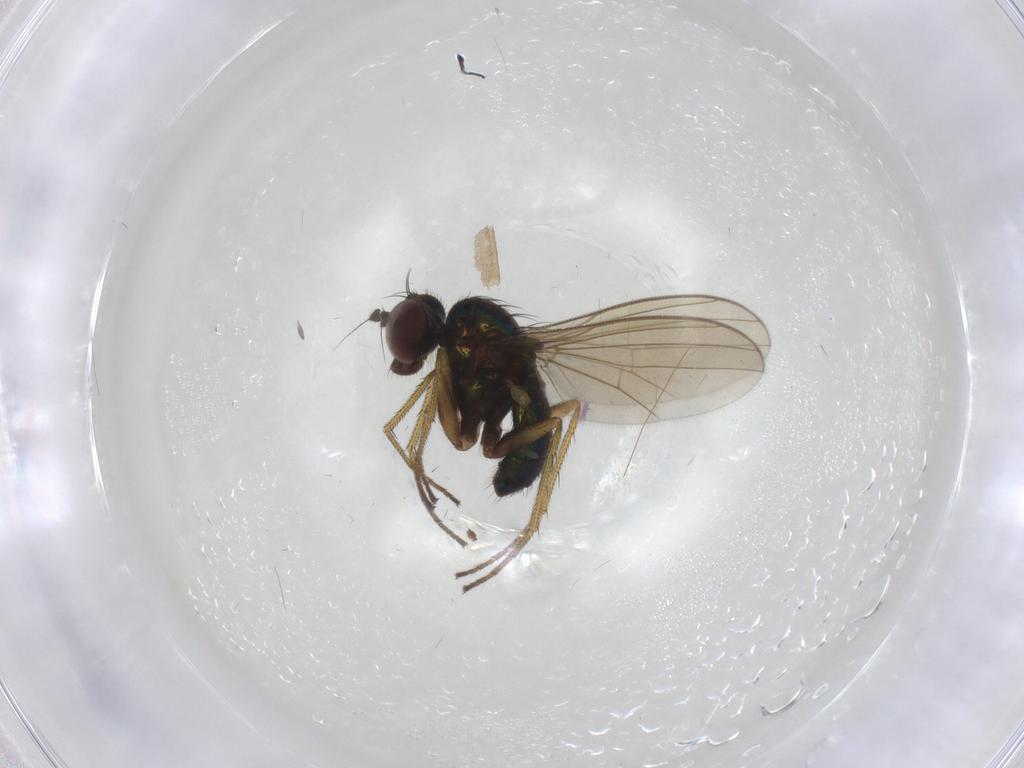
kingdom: Animalia
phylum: Arthropoda
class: Insecta
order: Diptera
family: Dolichopodidae
